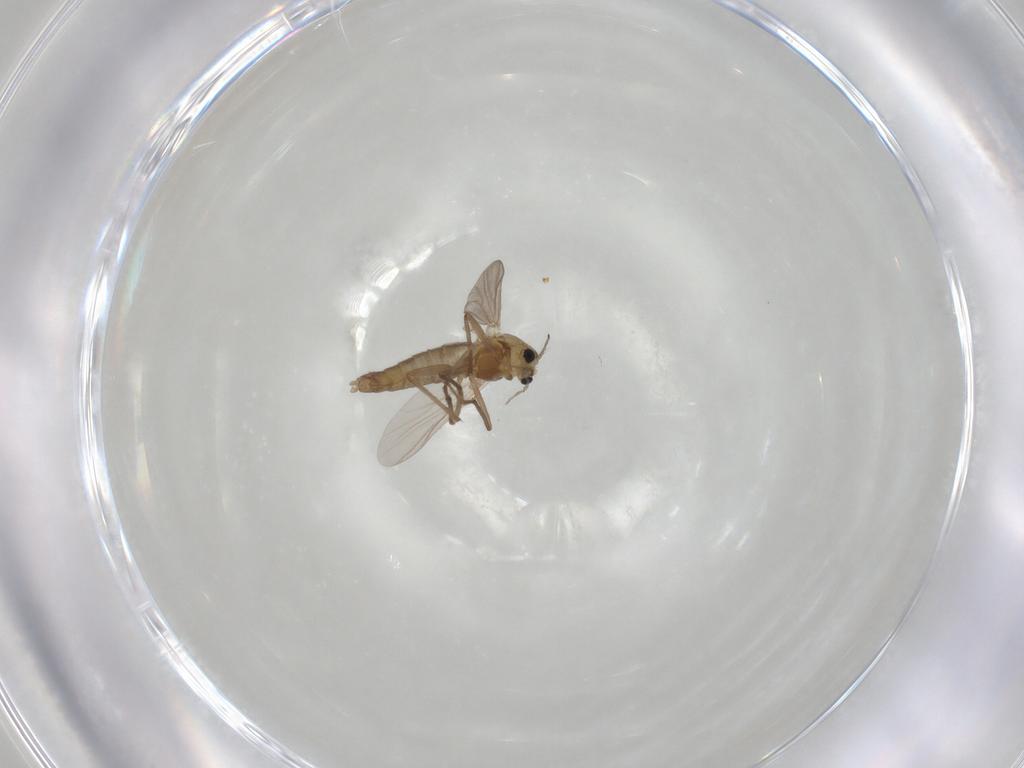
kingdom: Animalia
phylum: Arthropoda
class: Insecta
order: Diptera
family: Chironomidae
